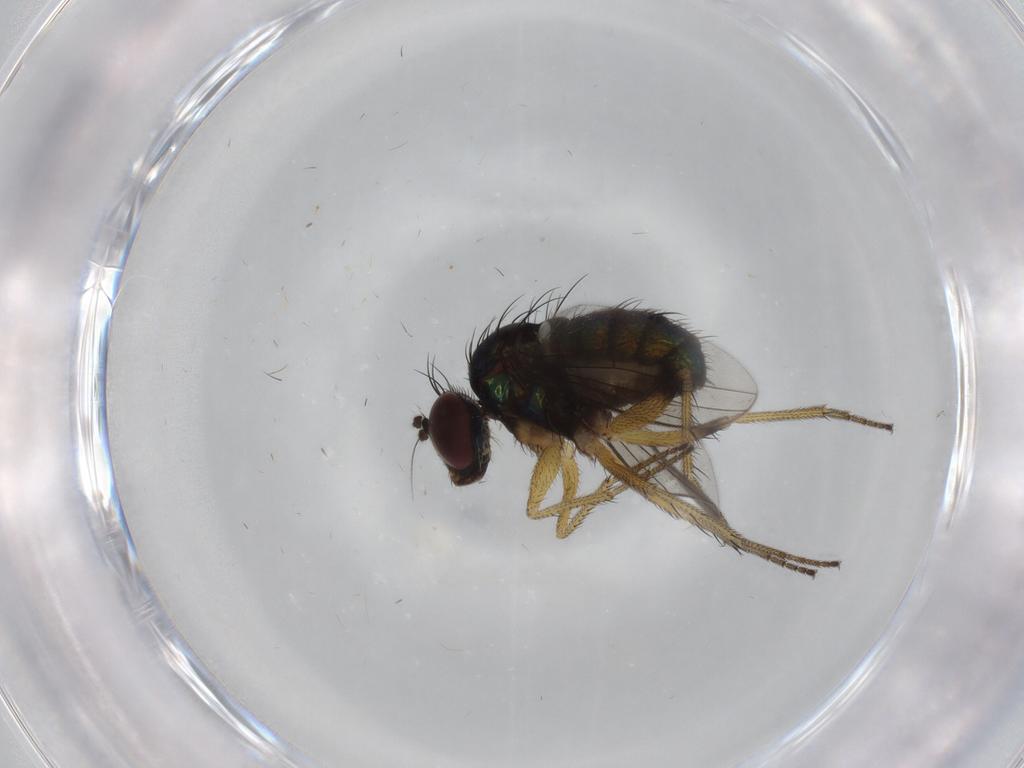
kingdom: Animalia
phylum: Arthropoda
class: Insecta
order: Diptera
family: Dolichopodidae
